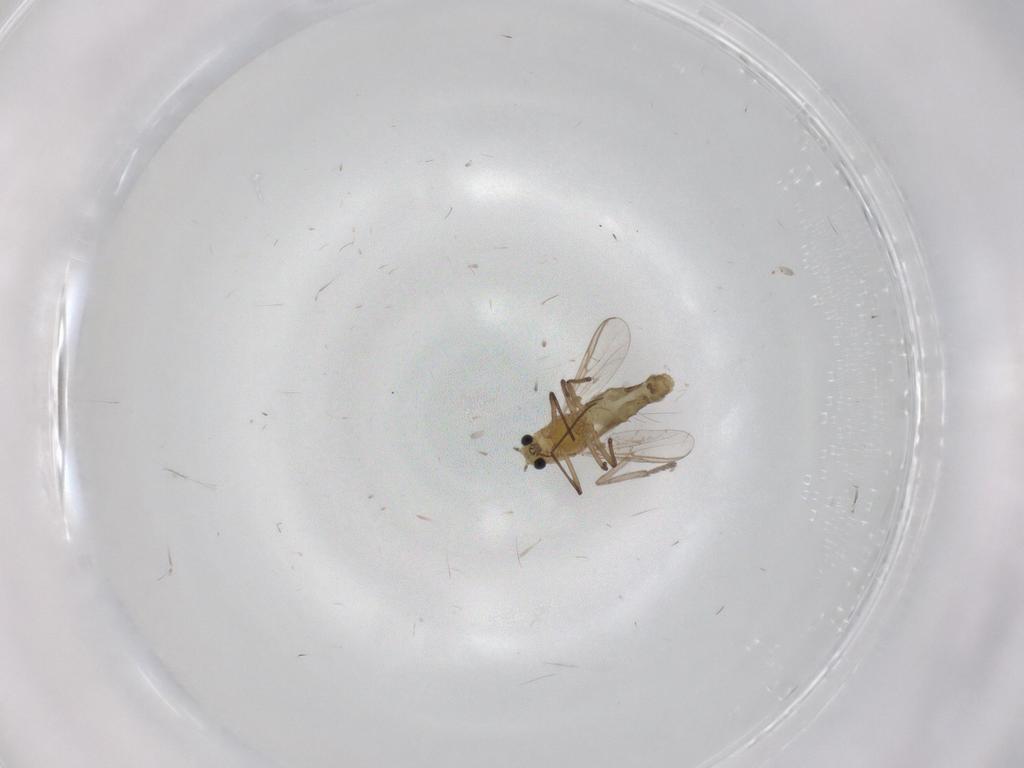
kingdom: Animalia
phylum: Arthropoda
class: Insecta
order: Diptera
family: Chironomidae
